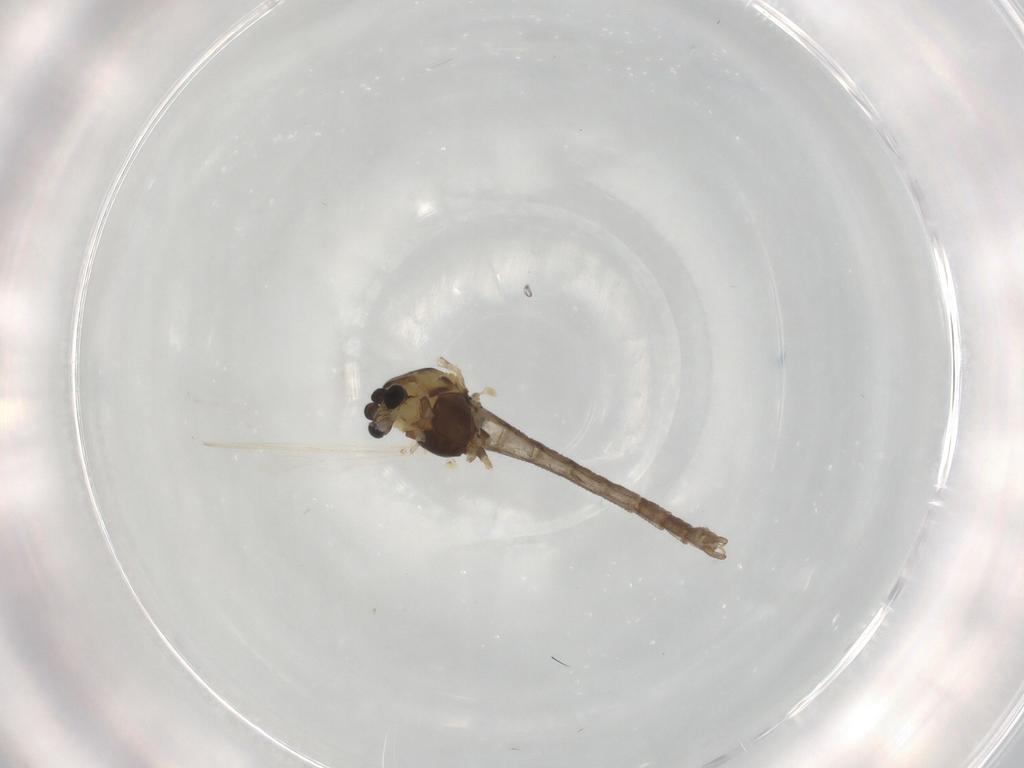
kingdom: Animalia
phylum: Arthropoda
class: Insecta
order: Diptera
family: Chironomidae
